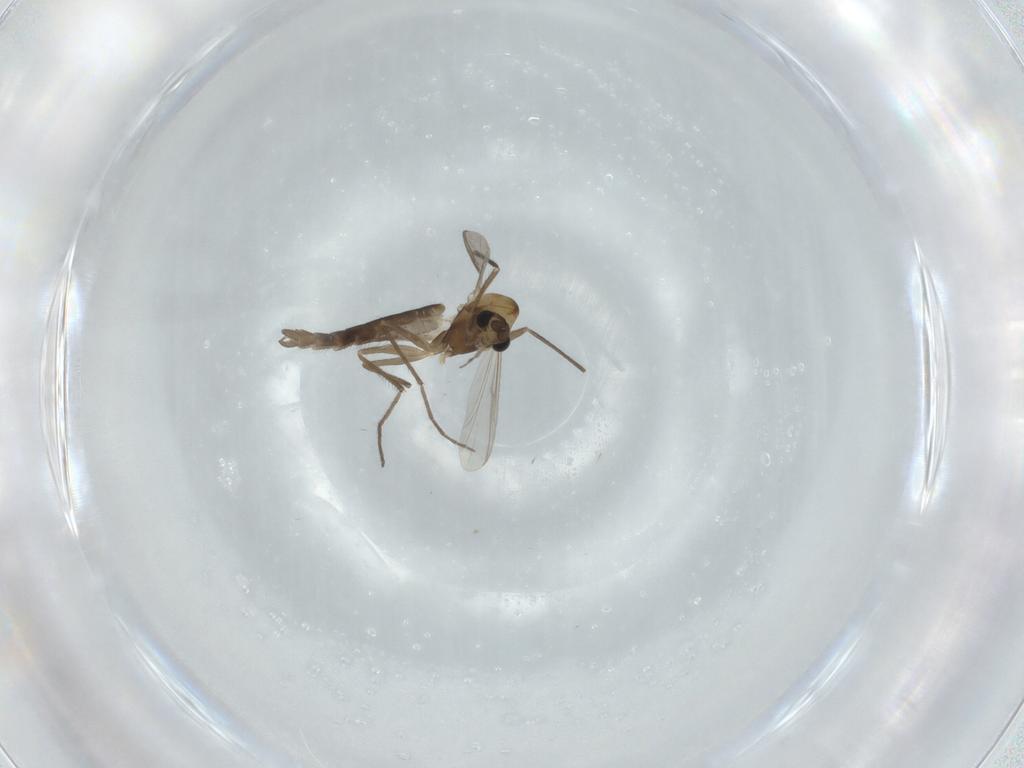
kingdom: Animalia
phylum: Arthropoda
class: Insecta
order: Diptera
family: Chironomidae
